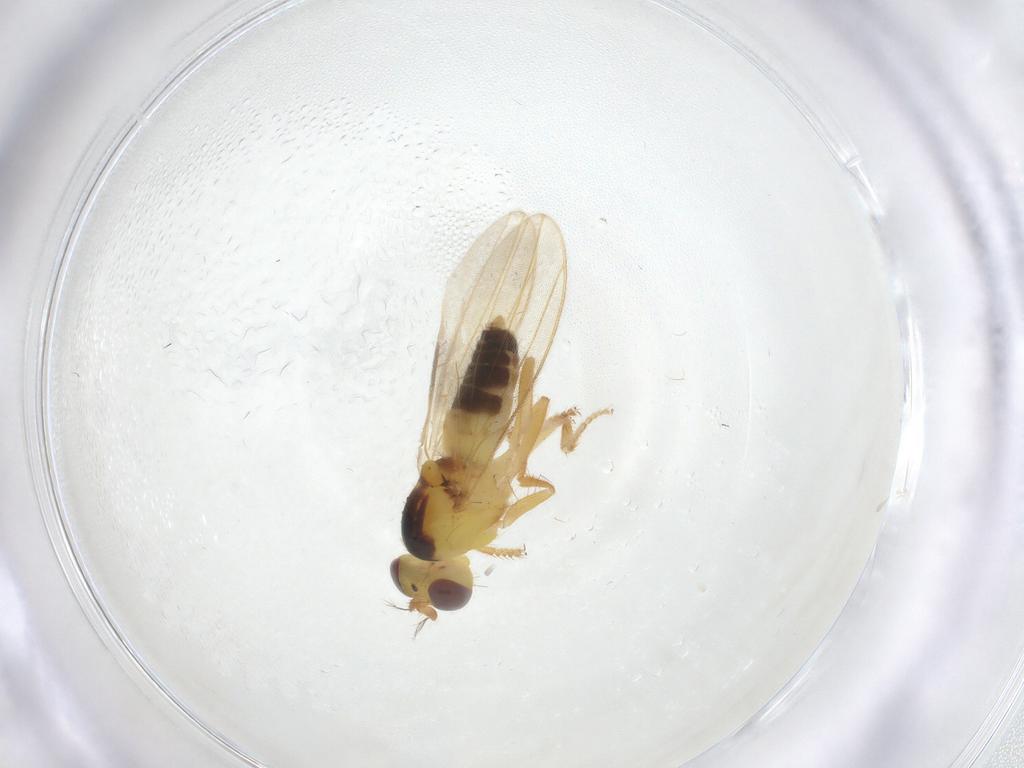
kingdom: Animalia
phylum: Arthropoda
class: Insecta
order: Diptera
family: Periscelididae
